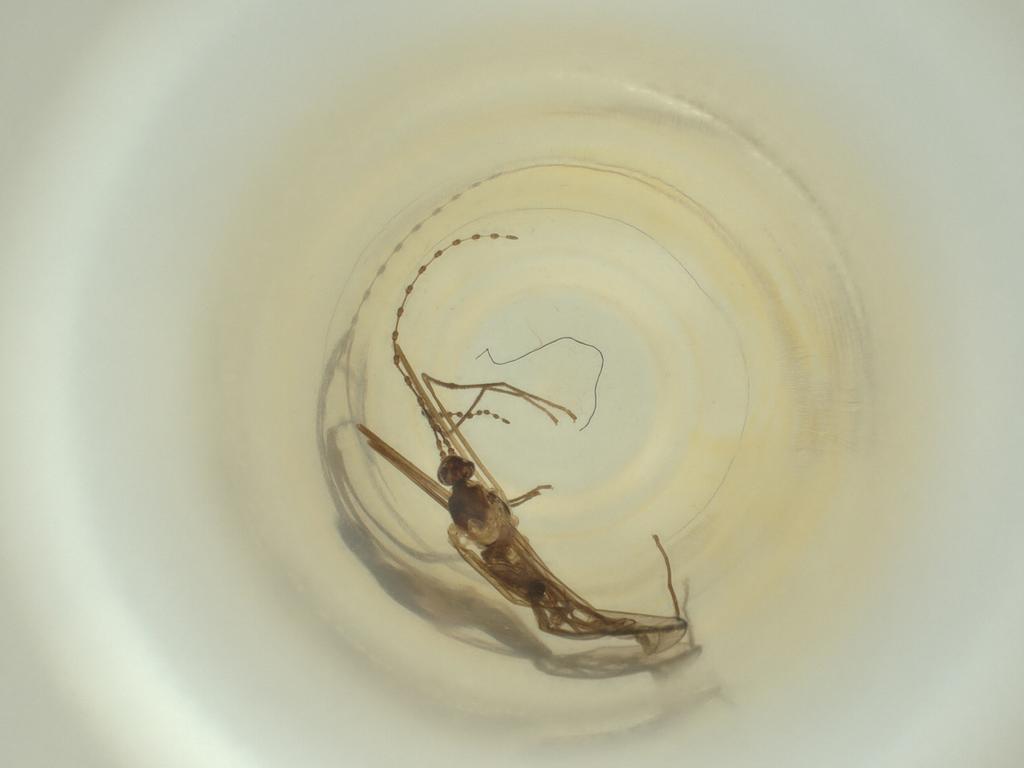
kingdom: Animalia
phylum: Arthropoda
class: Insecta
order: Diptera
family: Cecidomyiidae
